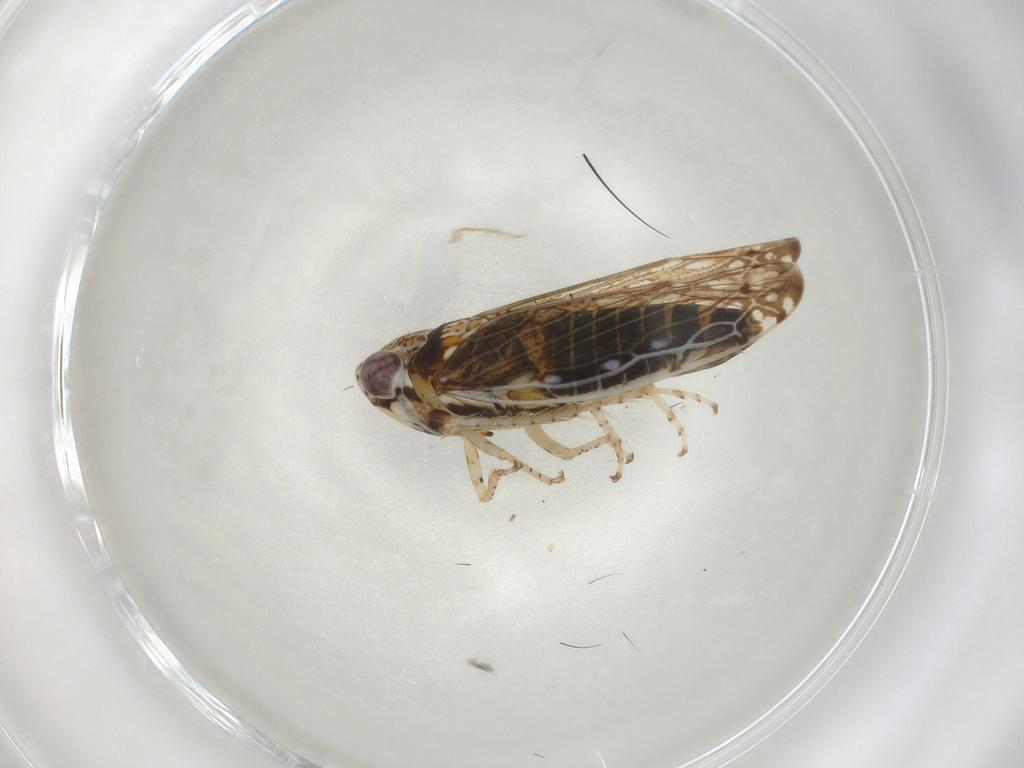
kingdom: Animalia
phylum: Arthropoda
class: Insecta
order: Hemiptera
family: Cicadellidae
